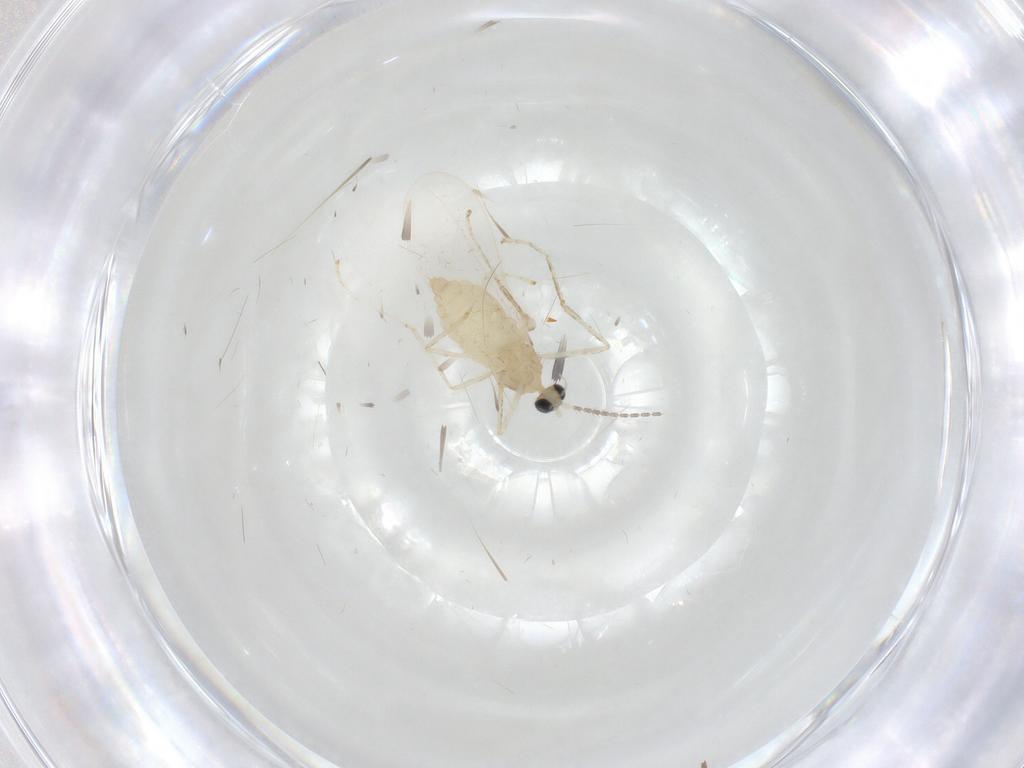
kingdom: Animalia
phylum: Arthropoda
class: Insecta
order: Diptera
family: Cecidomyiidae
